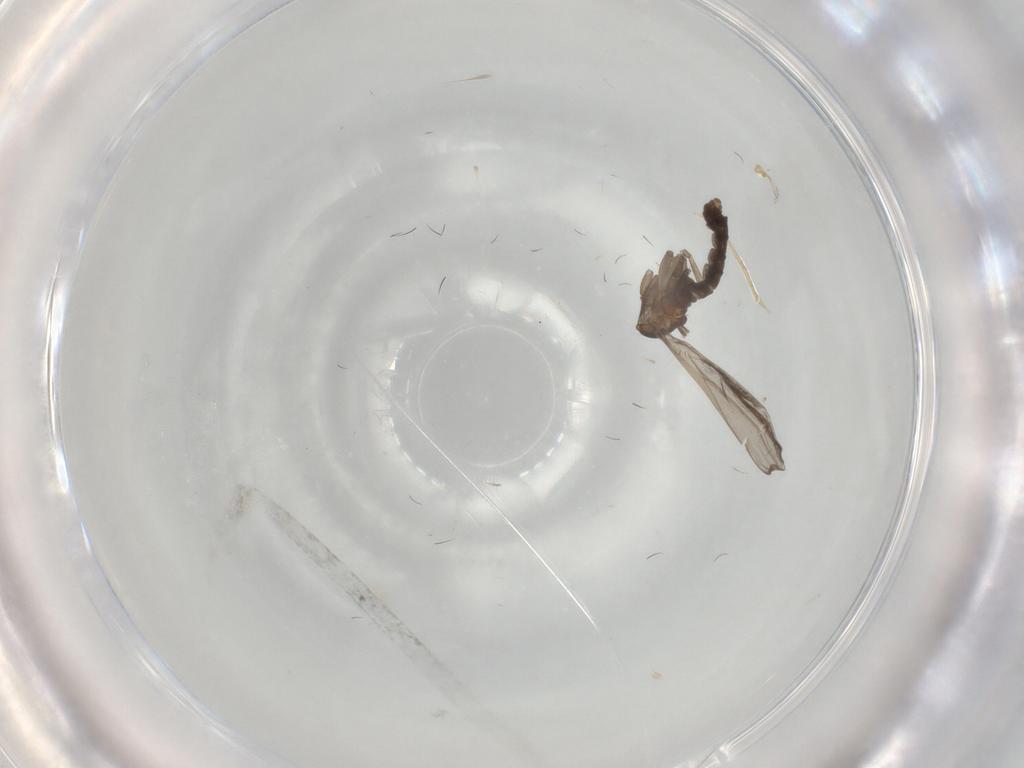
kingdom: Animalia
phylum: Arthropoda
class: Insecta
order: Diptera
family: Dolichopodidae
